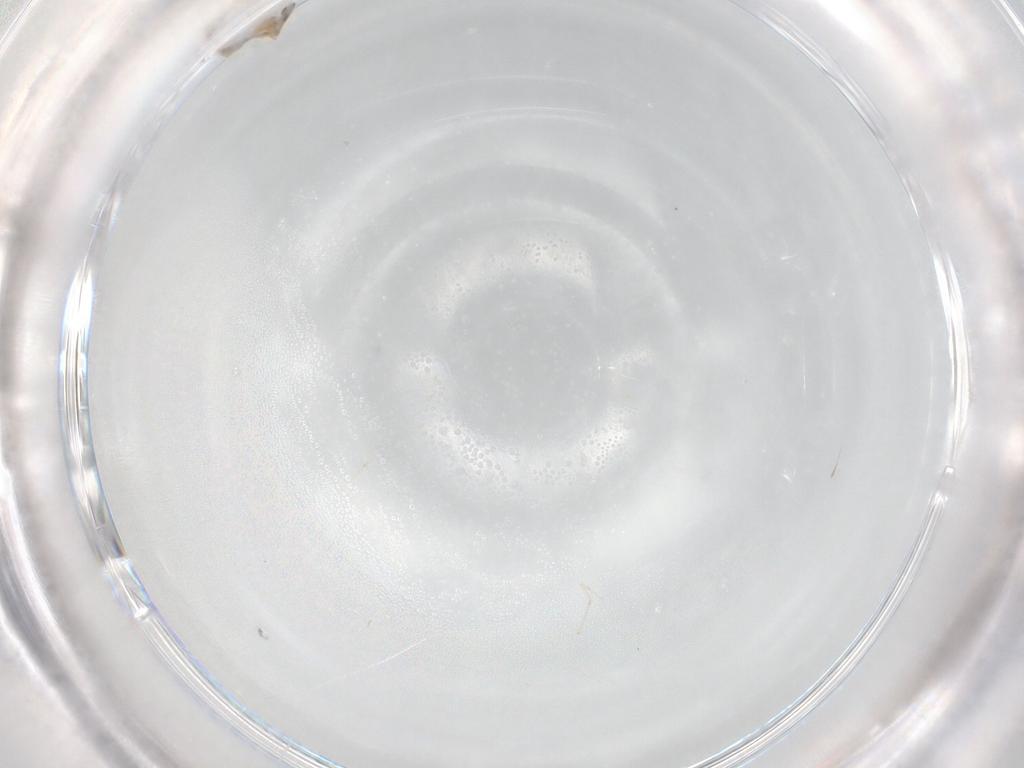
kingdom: Animalia
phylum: Arthropoda
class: Insecta
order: Diptera
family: Cecidomyiidae
